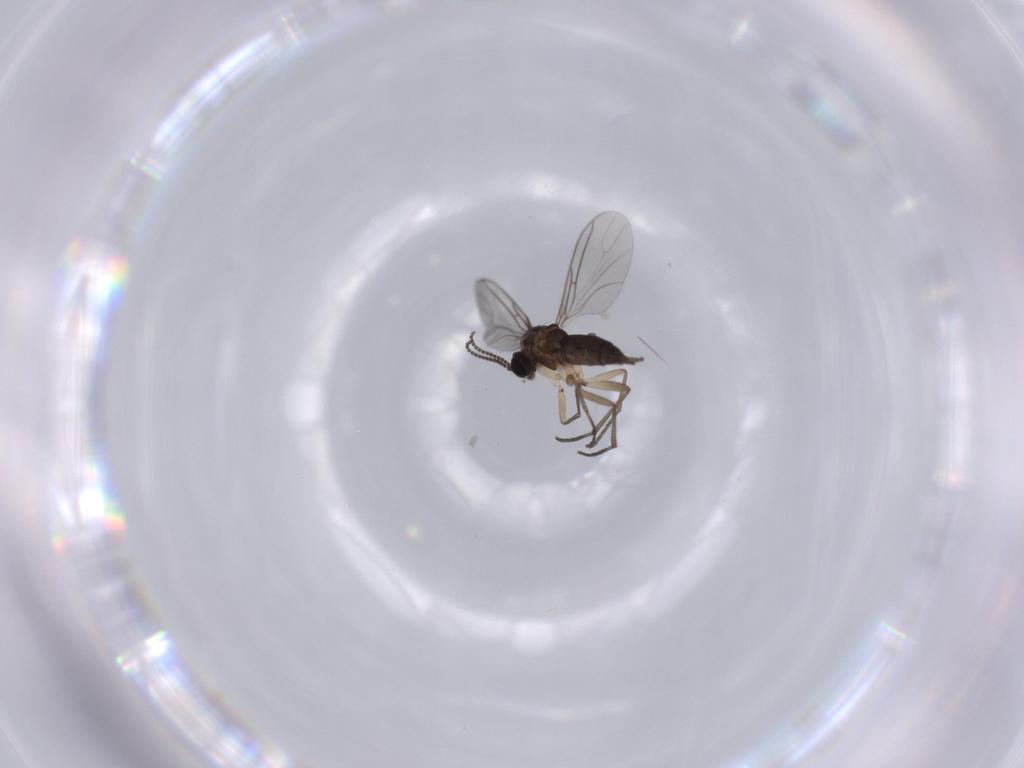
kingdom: Animalia
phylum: Arthropoda
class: Insecta
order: Diptera
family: Sciaridae
